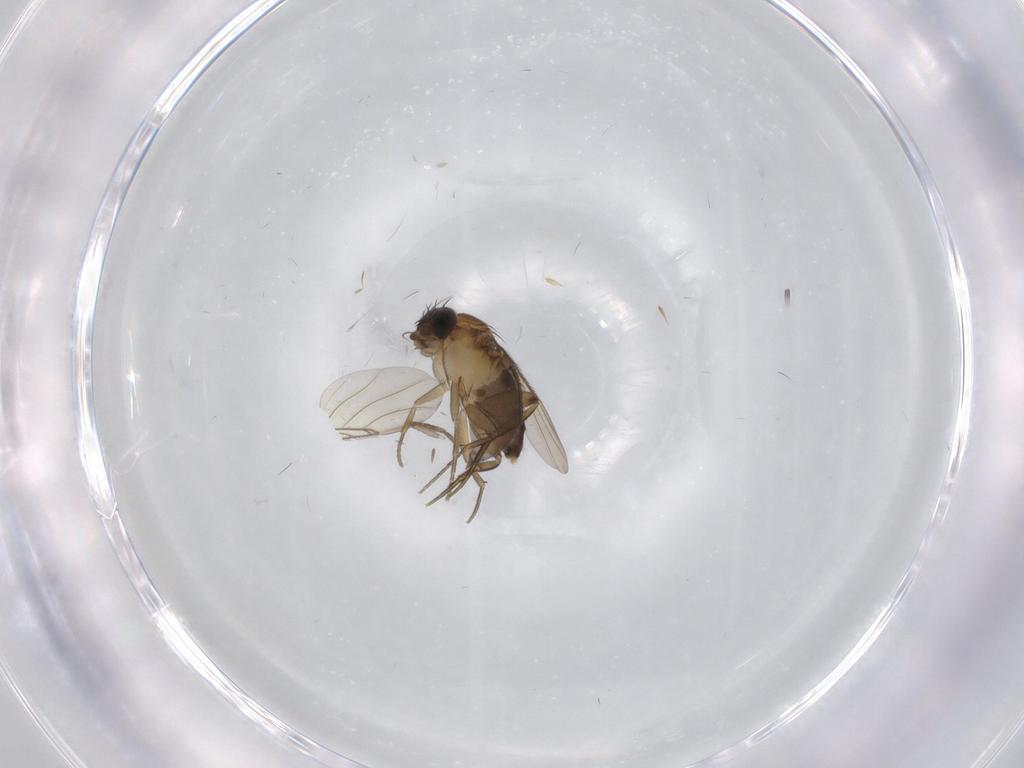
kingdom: Animalia
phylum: Arthropoda
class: Insecta
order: Diptera
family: Phoridae
